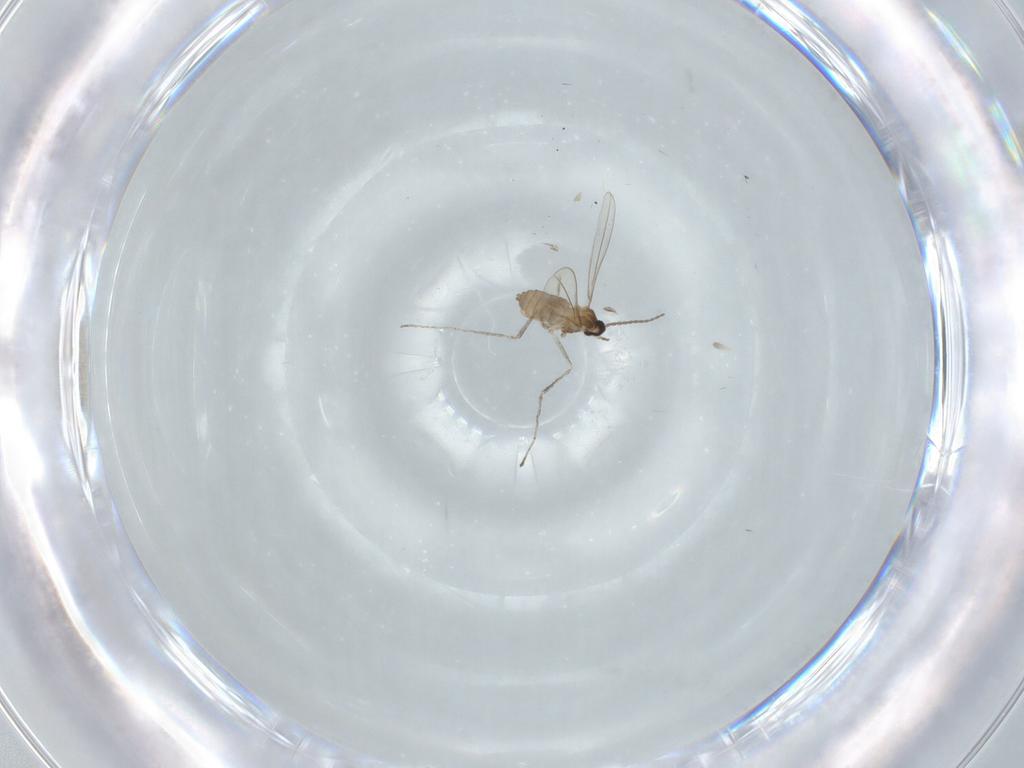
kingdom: Animalia
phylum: Arthropoda
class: Insecta
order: Diptera
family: Cecidomyiidae
